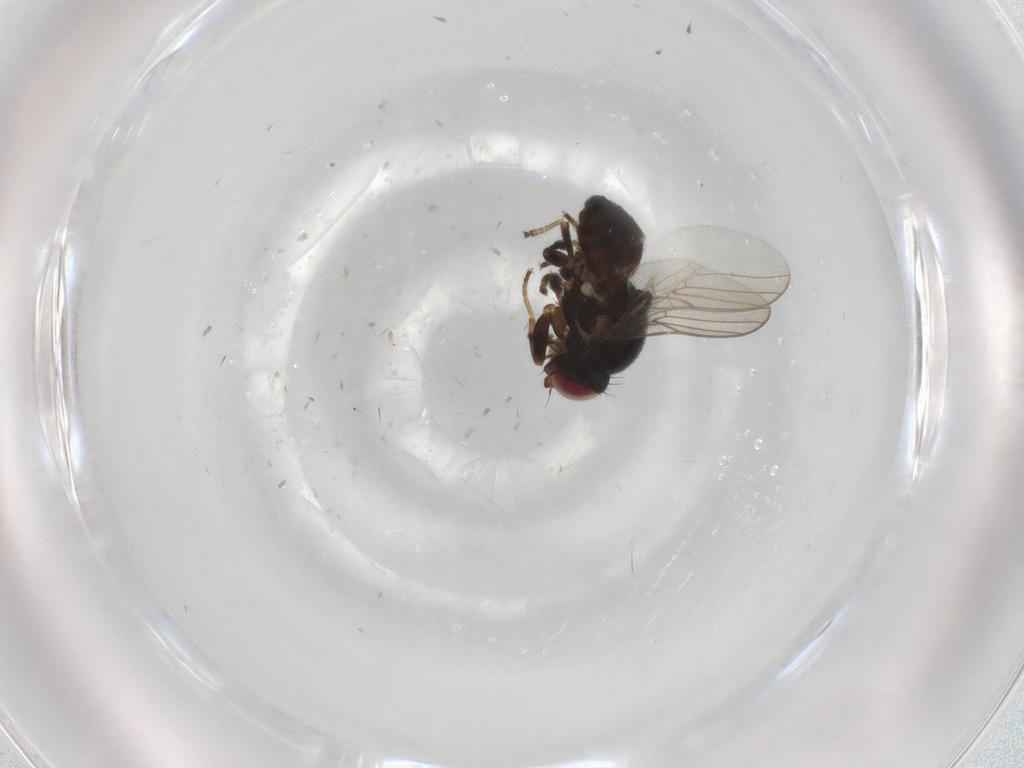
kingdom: Animalia
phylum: Arthropoda
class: Insecta
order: Diptera
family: Chloropidae
